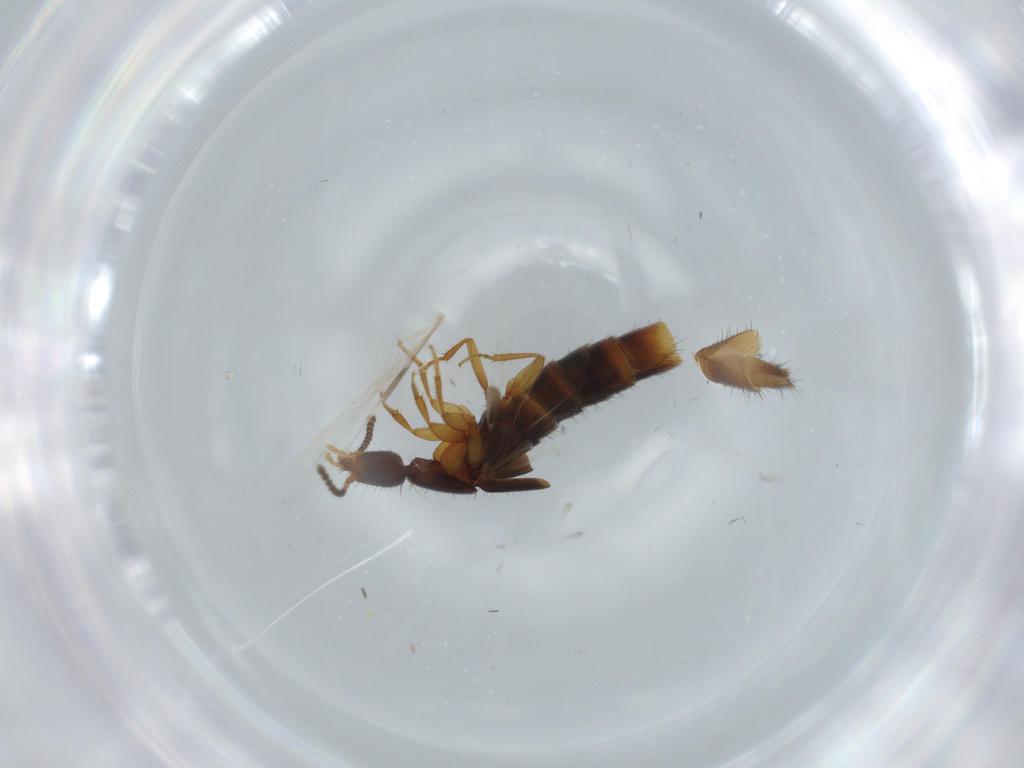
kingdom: Animalia
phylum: Arthropoda
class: Insecta
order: Coleoptera
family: Staphylinidae
